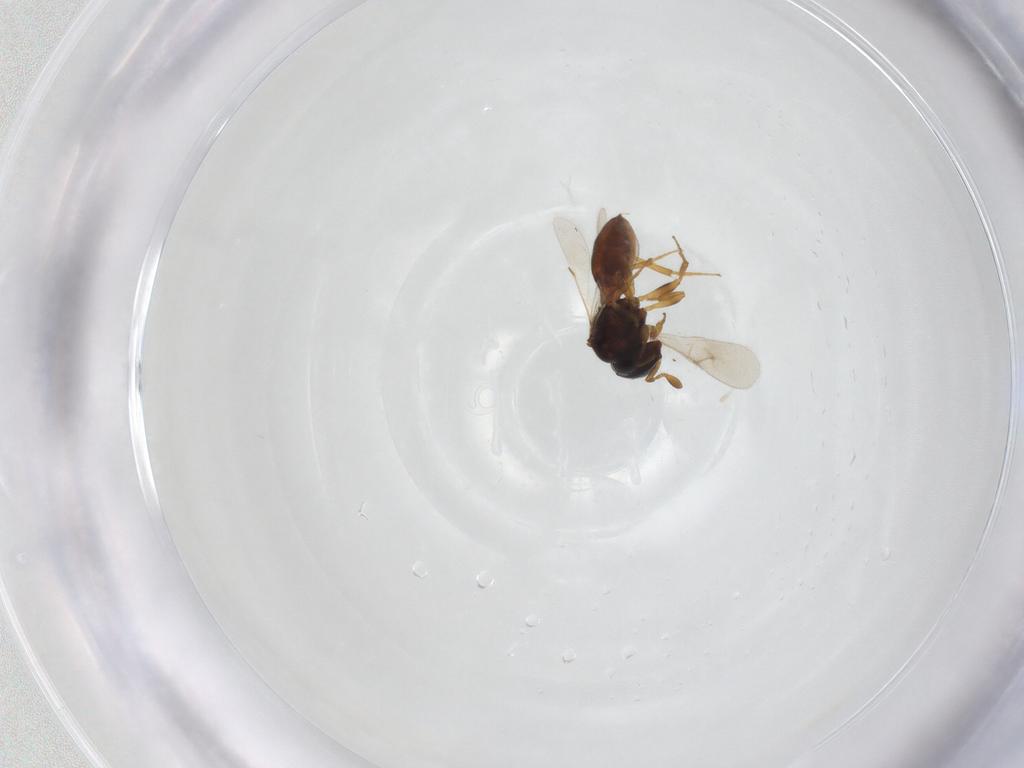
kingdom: Animalia
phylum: Arthropoda
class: Insecta
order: Hymenoptera
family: Scelionidae
